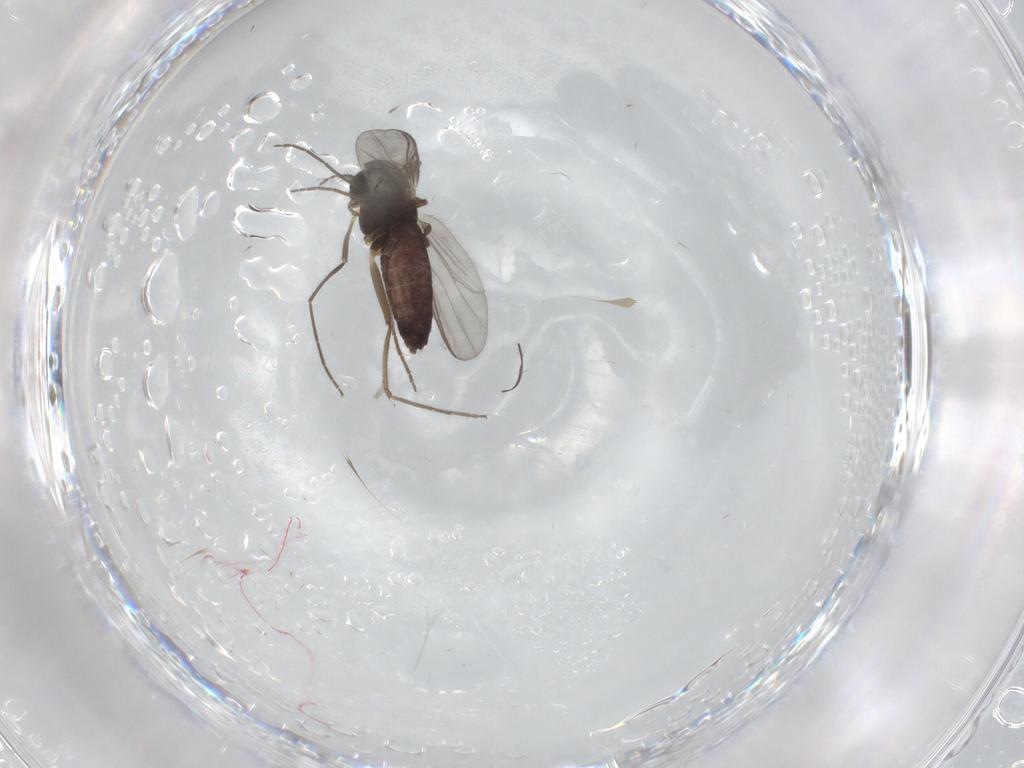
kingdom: Animalia
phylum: Arthropoda
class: Insecta
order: Diptera
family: Chironomidae
